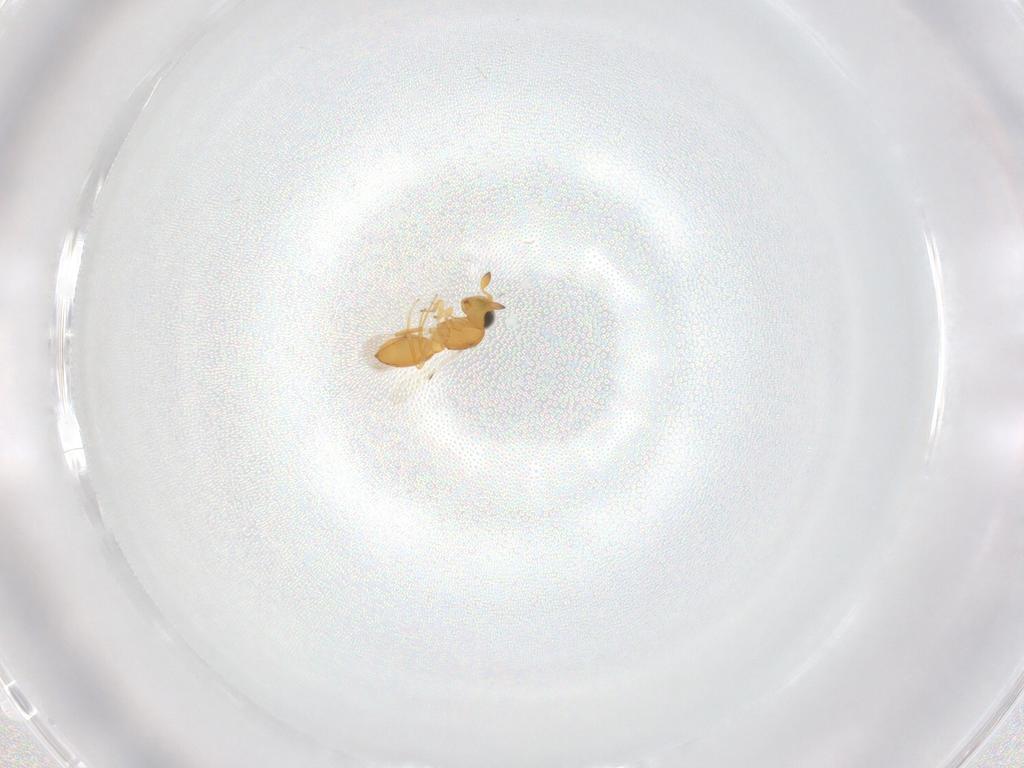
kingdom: Animalia
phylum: Arthropoda
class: Insecta
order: Hymenoptera
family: Scelionidae
